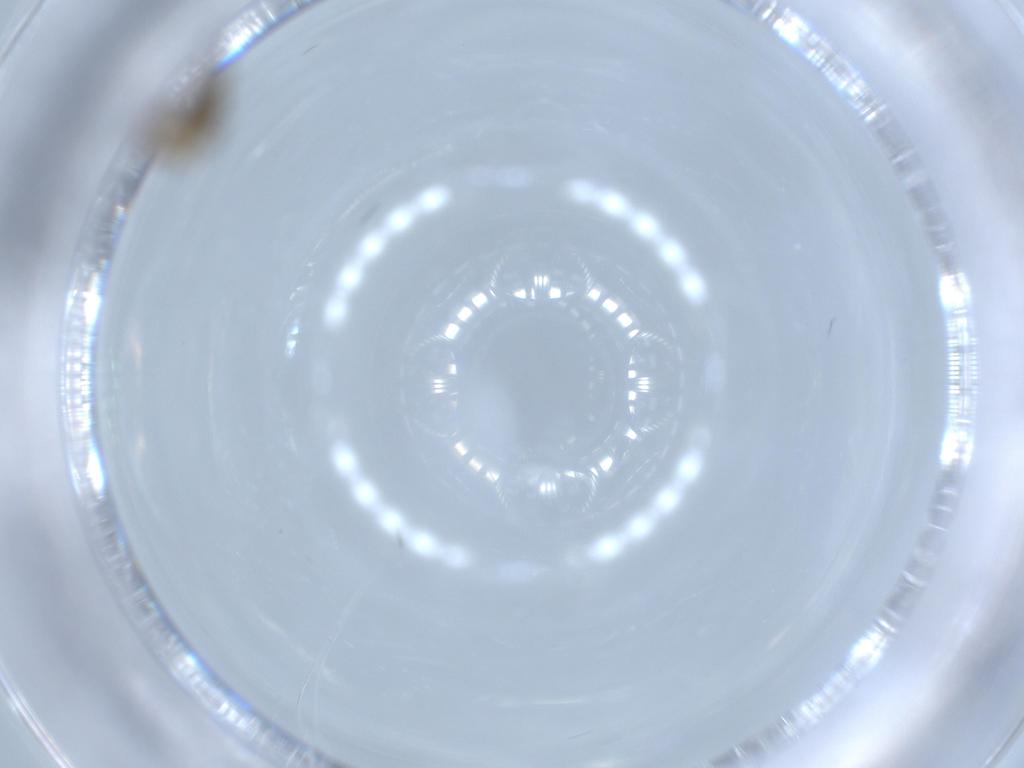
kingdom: Animalia
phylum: Arthropoda
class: Insecta
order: Diptera
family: Chironomidae
